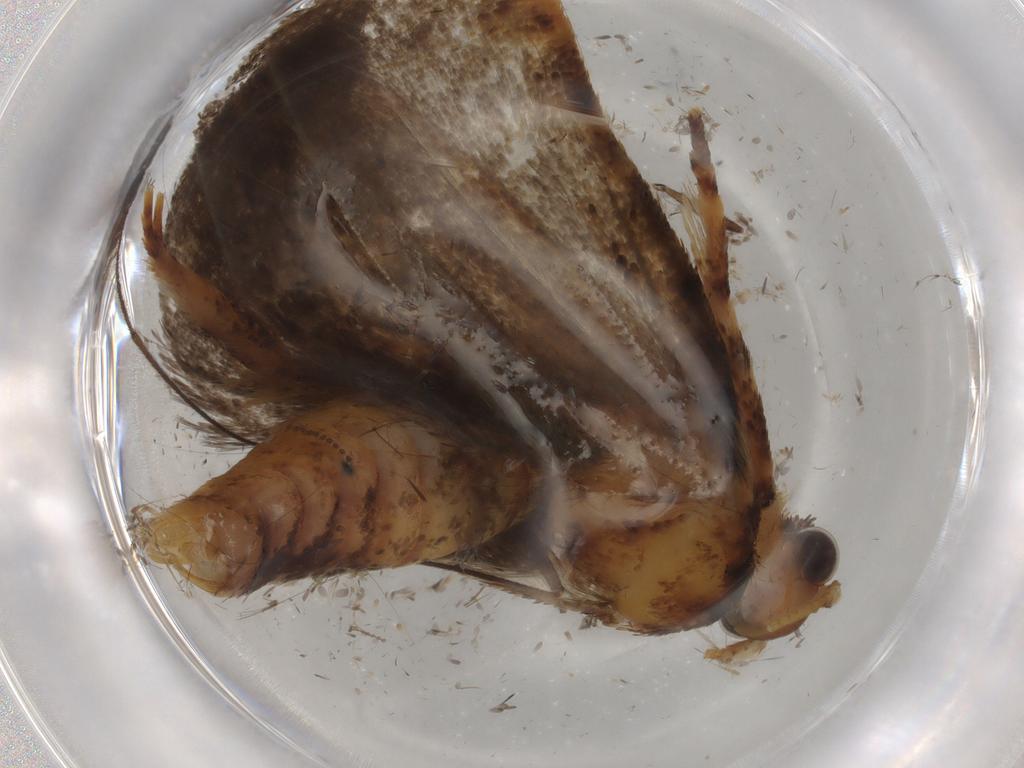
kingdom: Animalia
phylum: Arthropoda
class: Insecta
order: Lepidoptera
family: Tineidae
